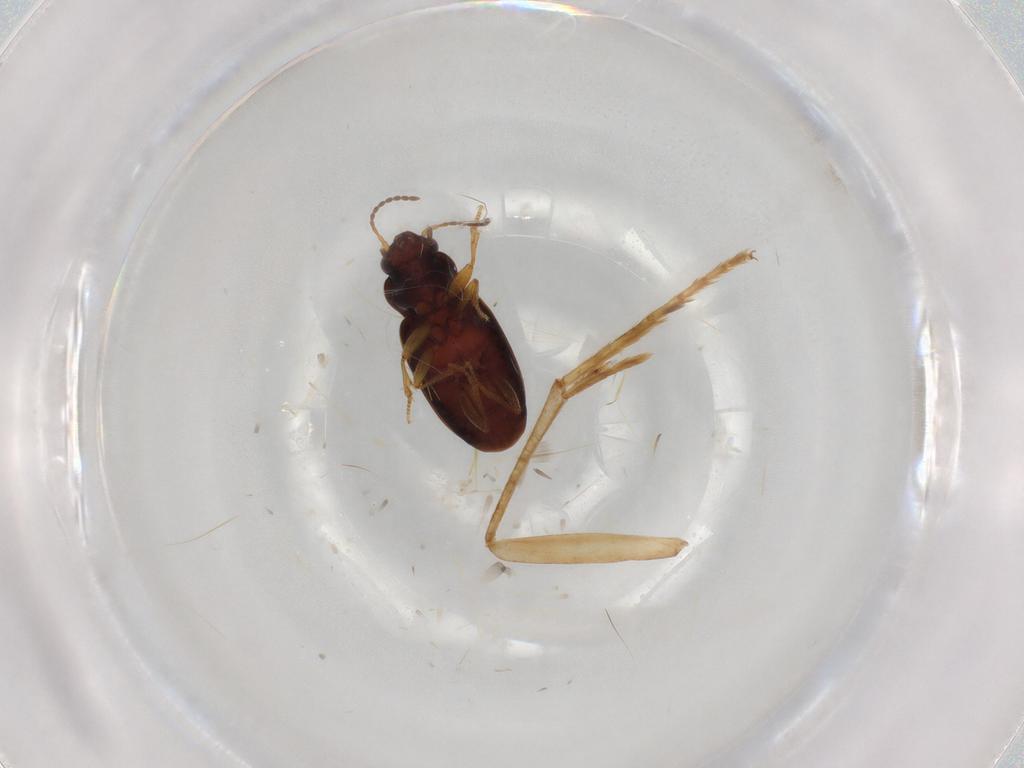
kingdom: Animalia
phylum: Arthropoda
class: Insecta
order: Coleoptera
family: Carabidae
